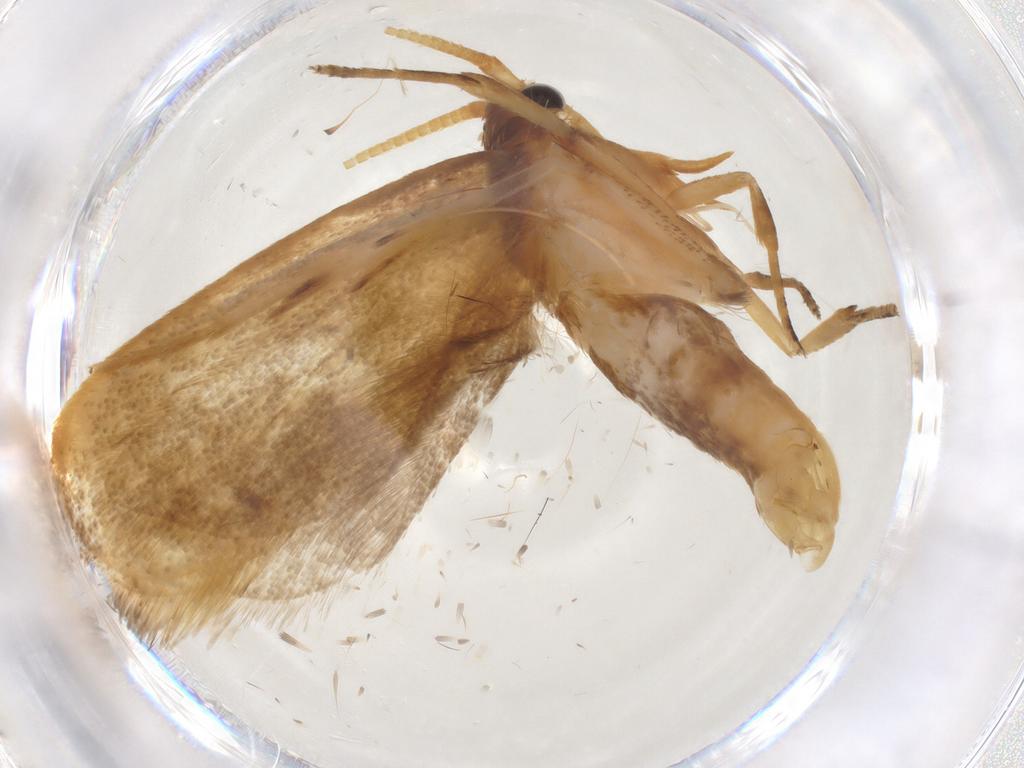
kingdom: Animalia
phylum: Arthropoda
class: Insecta
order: Lepidoptera
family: Lecithoceridae
